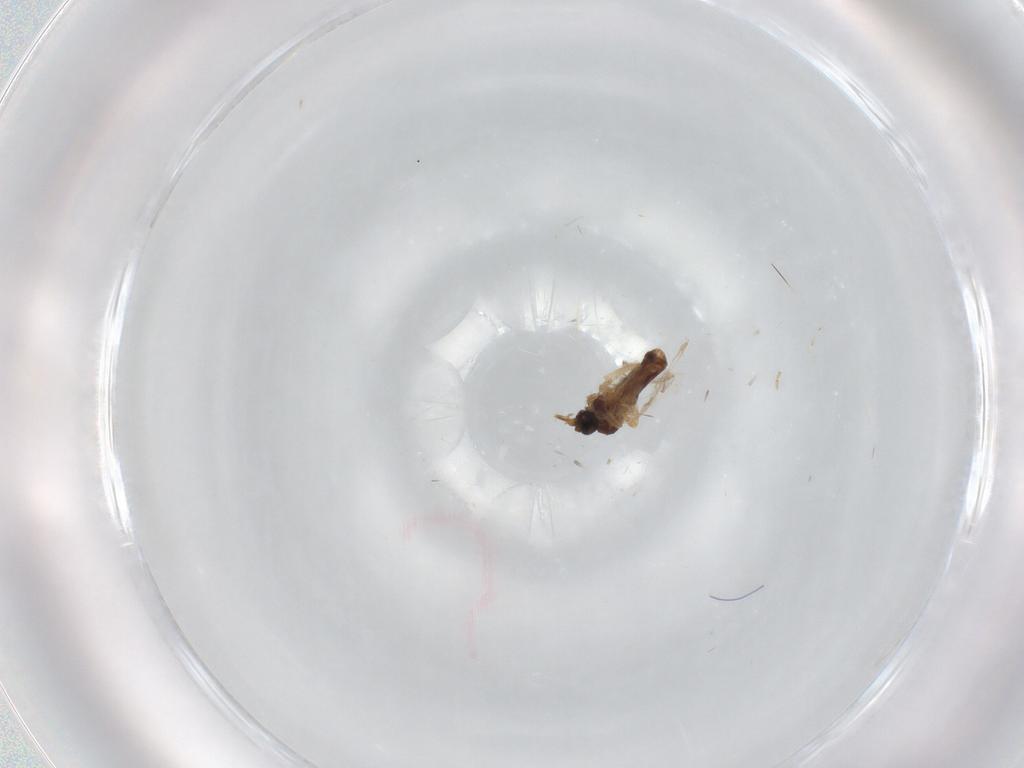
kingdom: Animalia
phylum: Arthropoda
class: Insecta
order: Diptera
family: Ceratopogonidae
